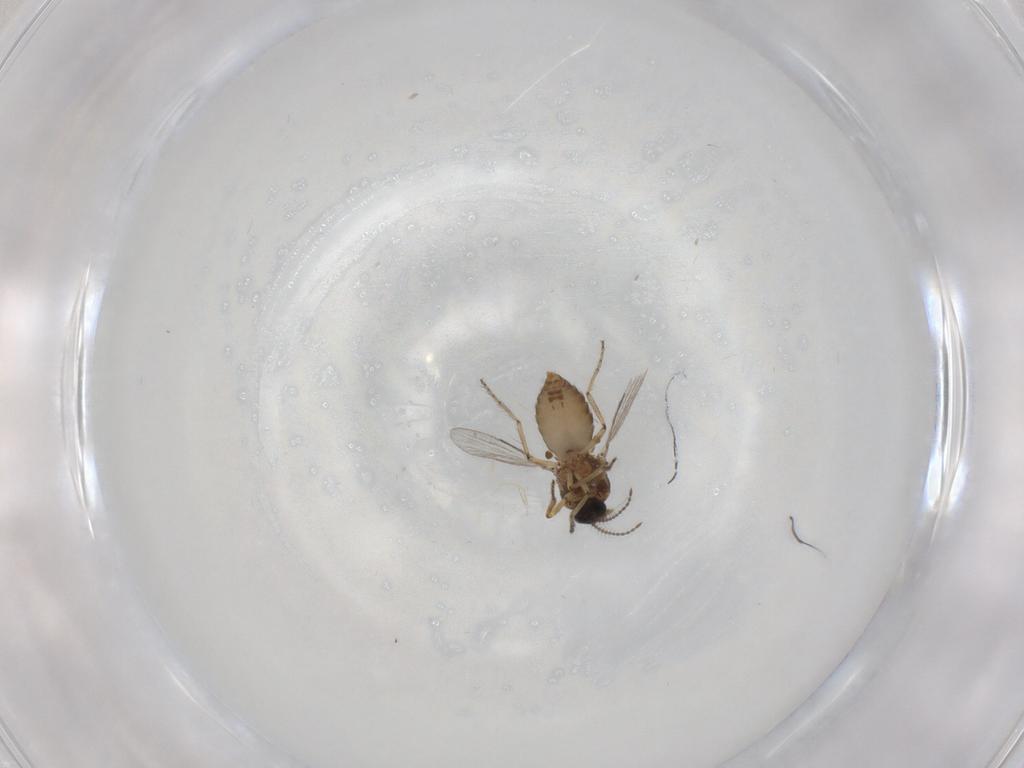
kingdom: Animalia
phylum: Arthropoda
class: Insecta
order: Diptera
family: Ceratopogonidae
